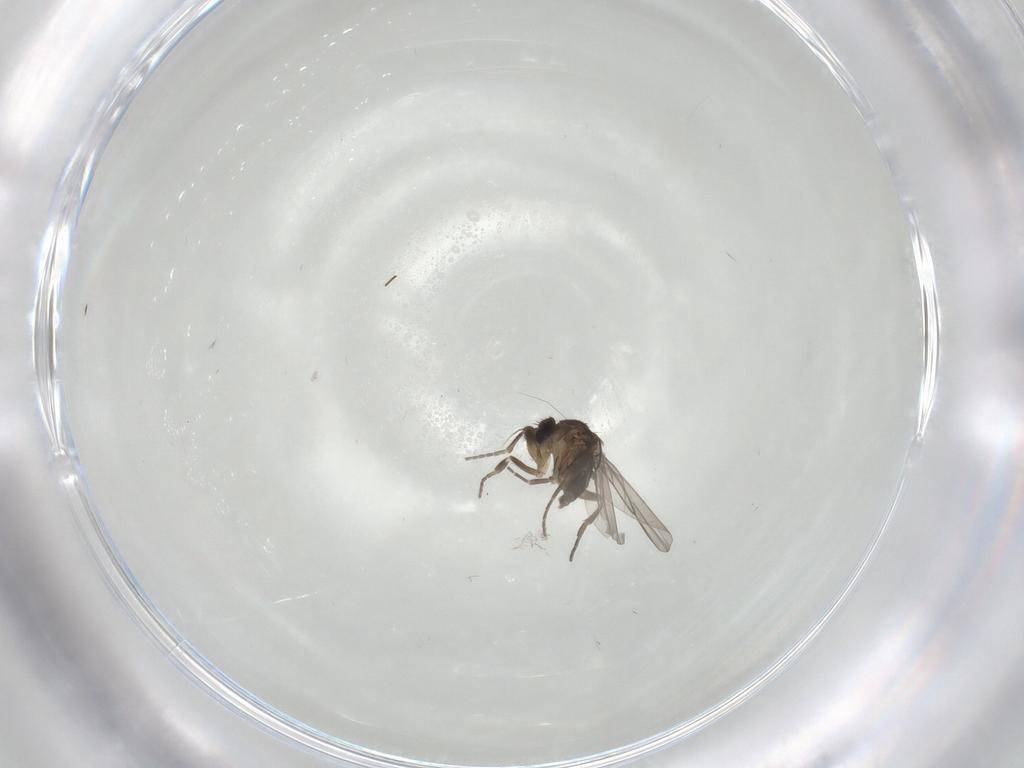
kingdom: Animalia
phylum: Arthropoda
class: Insecta
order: Diptera
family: Phoridae
